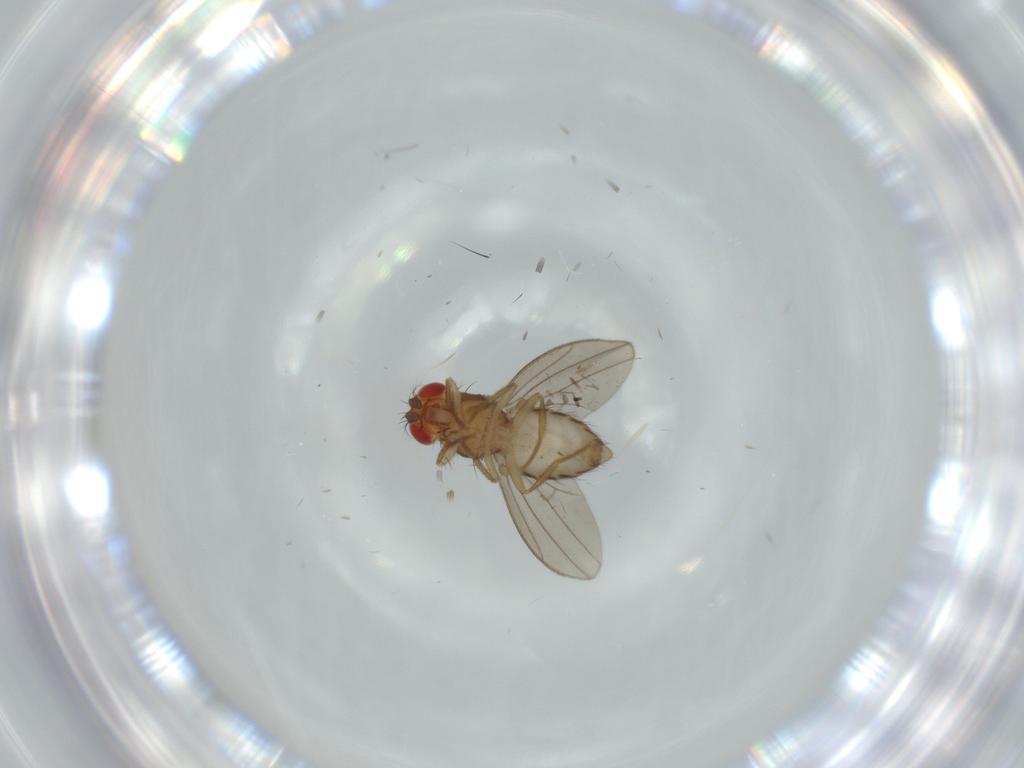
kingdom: Animalia
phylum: Arthropoda
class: Insecta
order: Diptera
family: Drosophilidae
